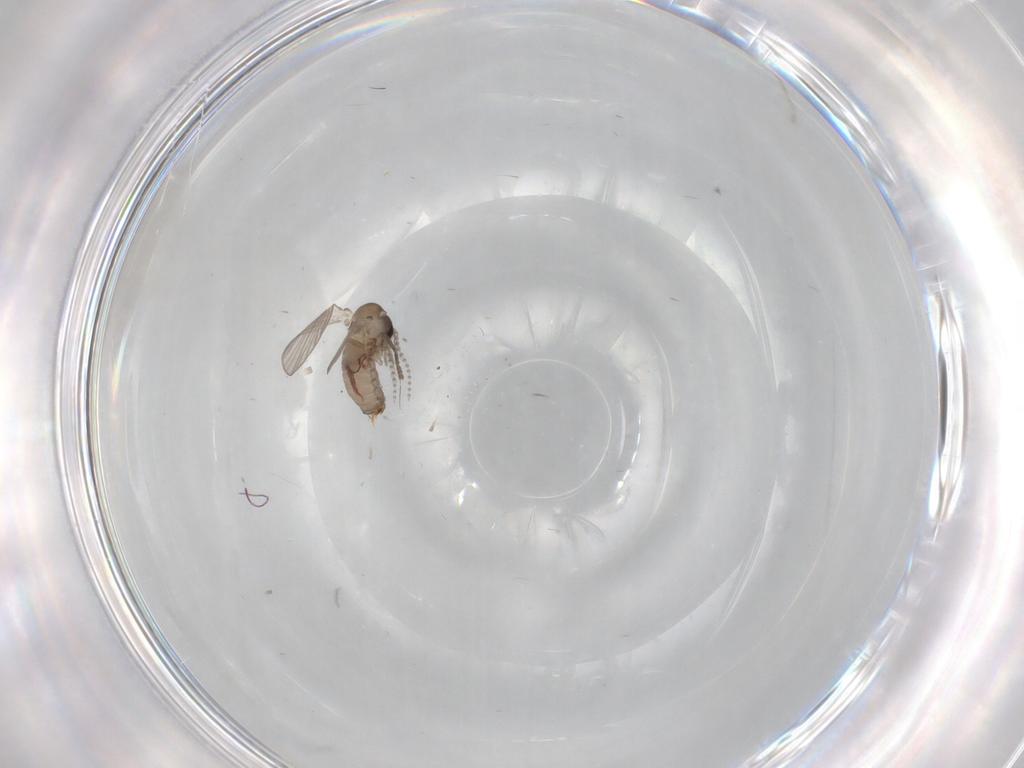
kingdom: Animalia
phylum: Arthropoda
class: Insecta
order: Diptera
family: Psychodidae
